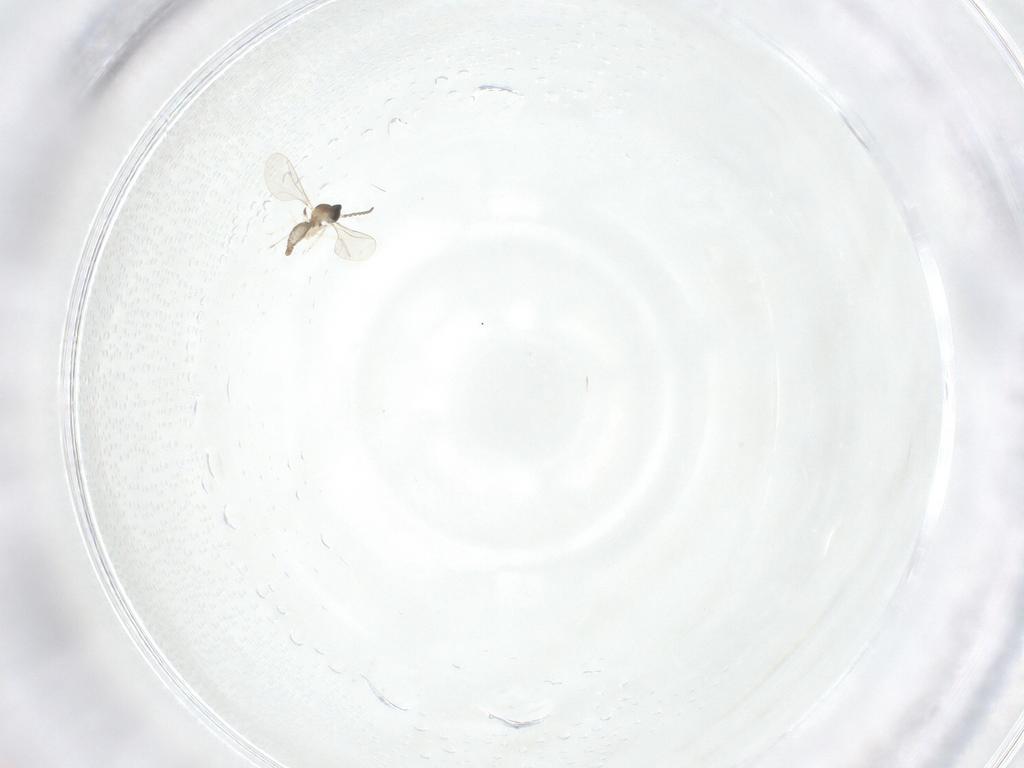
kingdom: Animalia
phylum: Arthropoda
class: Insecta
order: Diptera
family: Cecidomyiidae
